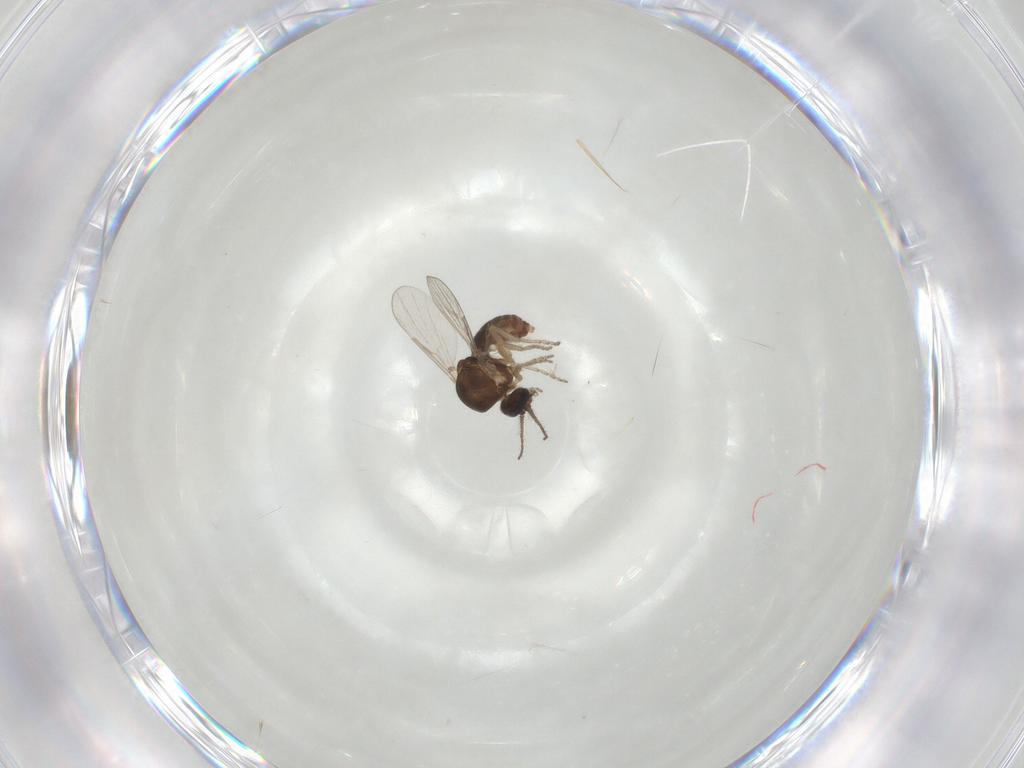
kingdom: Animalia
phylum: Arthropoda
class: Insecta
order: Diptera
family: Ceratopogonidae
